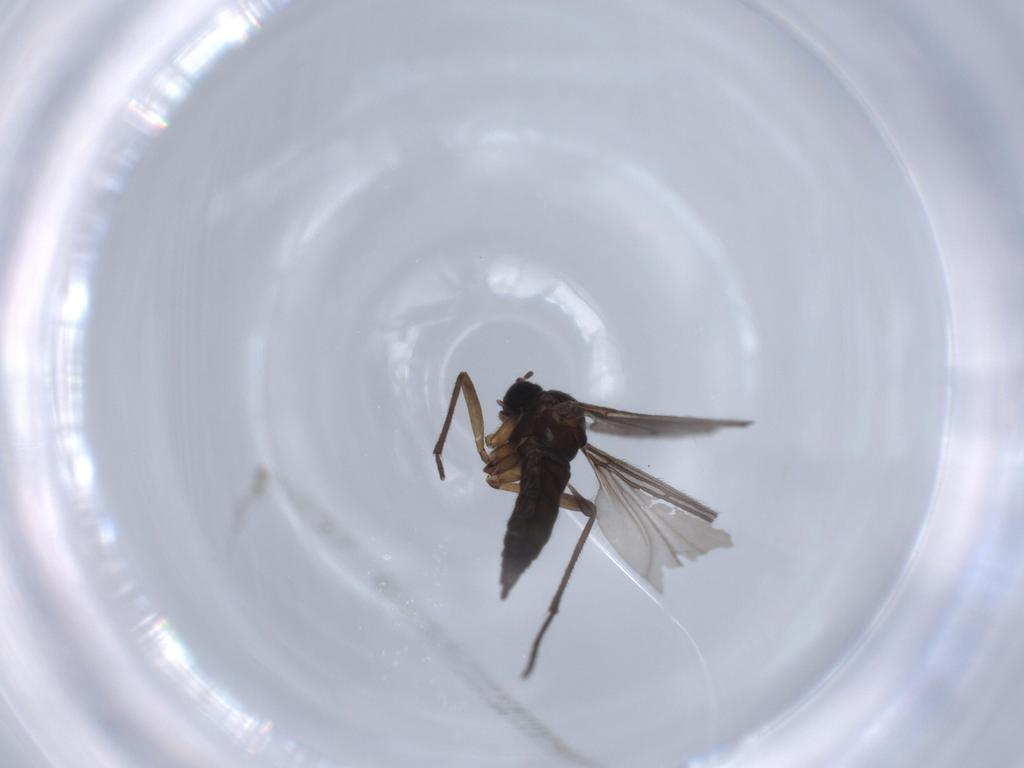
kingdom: Animalia
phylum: Arthropoda
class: Insecta
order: Diptera
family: Sciaridae
